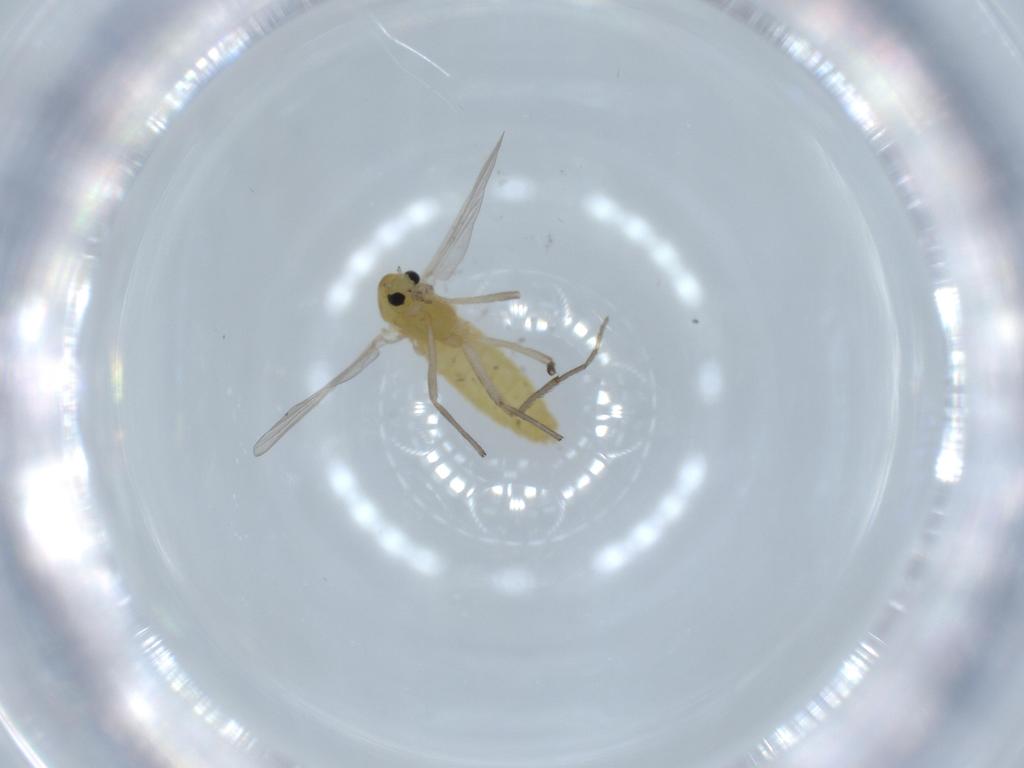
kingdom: Animalia
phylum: Arthropoda
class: Insecta
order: Diptera
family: Chironomidae
